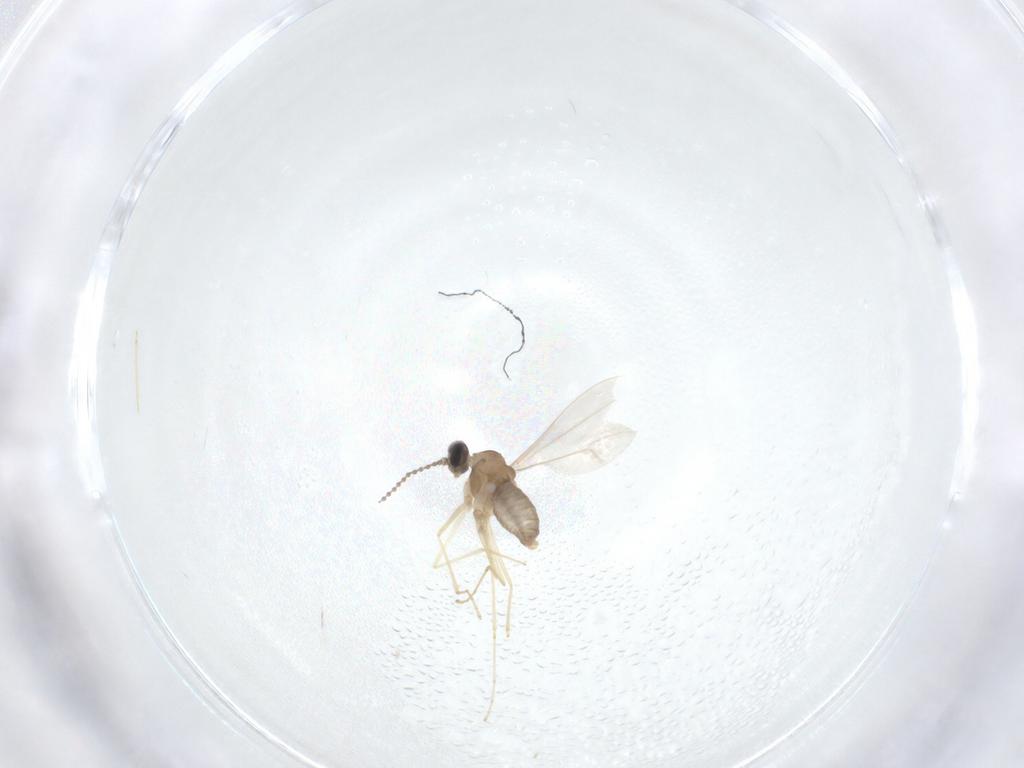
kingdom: Animalia
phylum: Arthropoda
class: Insecta
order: Diptera
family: Cecidomyiidae
